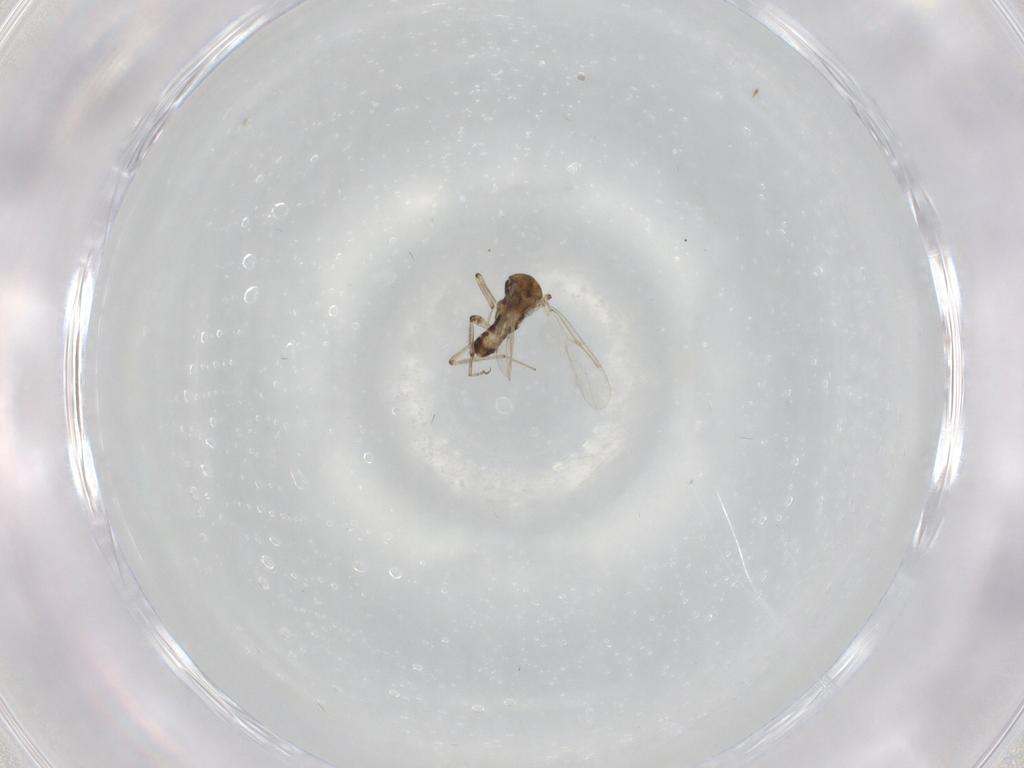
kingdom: Animalia
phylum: Arthropoda
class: Insecta
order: Diptera
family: Ceratopogonidae
